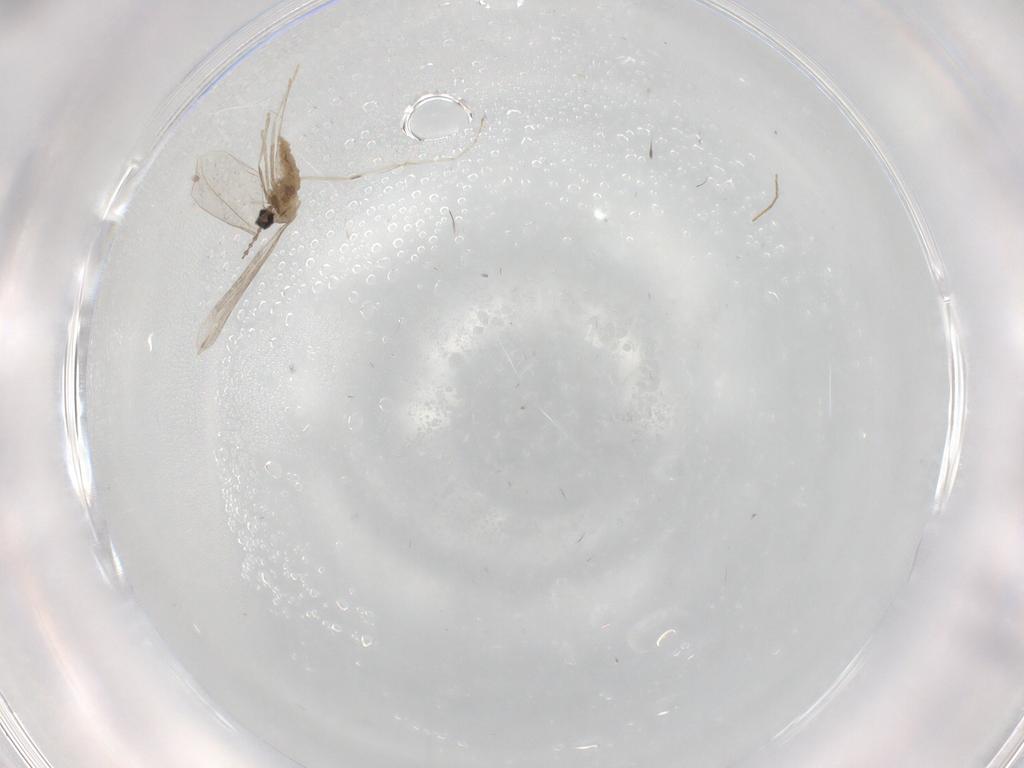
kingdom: Animalia
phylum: Arthropoda
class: Insecta
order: Diptera
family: Cecidomyiidae
